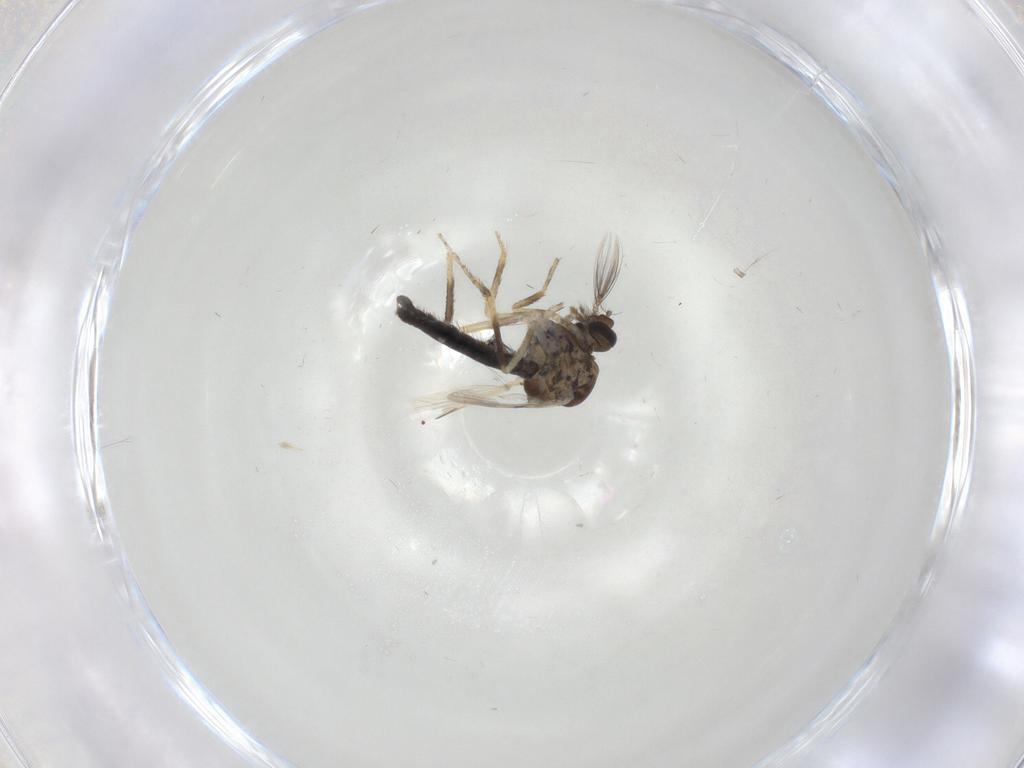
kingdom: Animalia
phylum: Arthropoda
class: Insecta
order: Diptera
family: Ceratopogonidae
